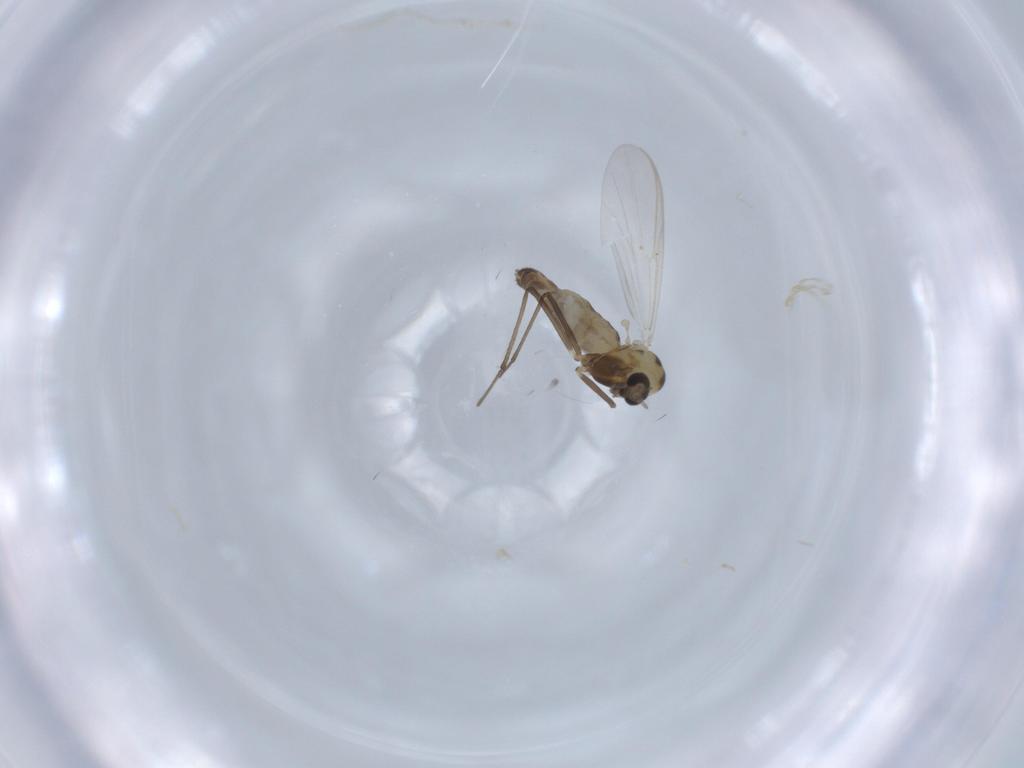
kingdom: Animalia
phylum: Arthropoda
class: Insecta
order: Diptera
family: Chironomidae
